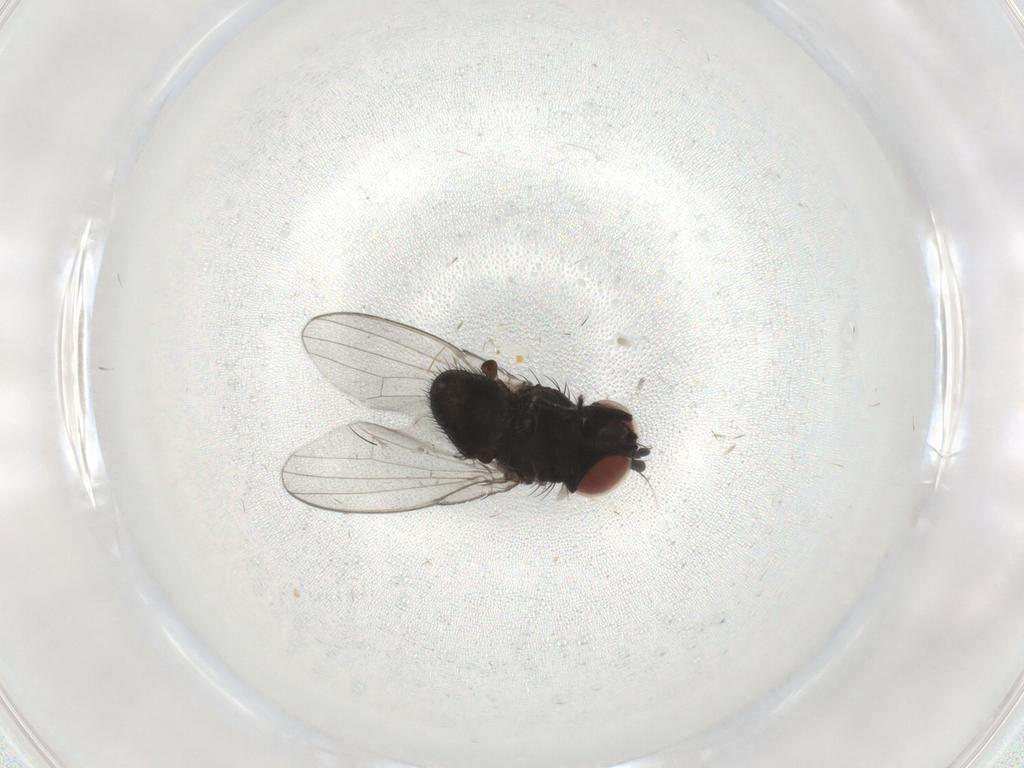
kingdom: Animalia
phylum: Arthropoda
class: Insecta
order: Diptera
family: Milichiidae
